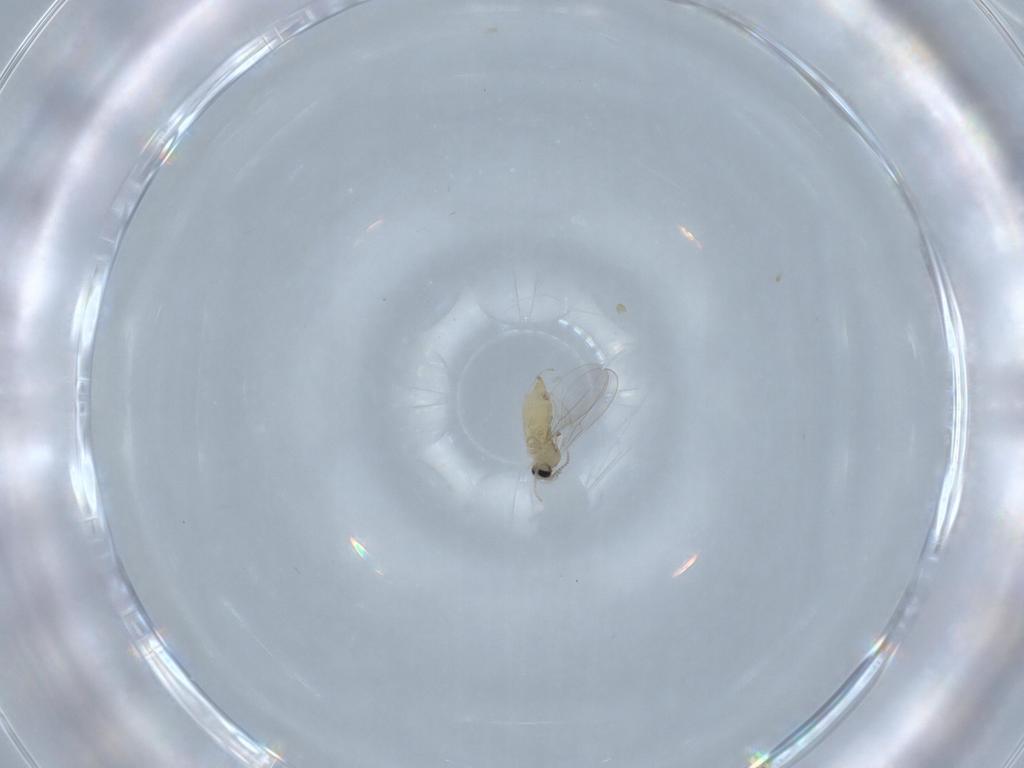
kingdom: Animalia
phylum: Arthropoda
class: Insecta
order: Diptera
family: Cecidomyiidae
